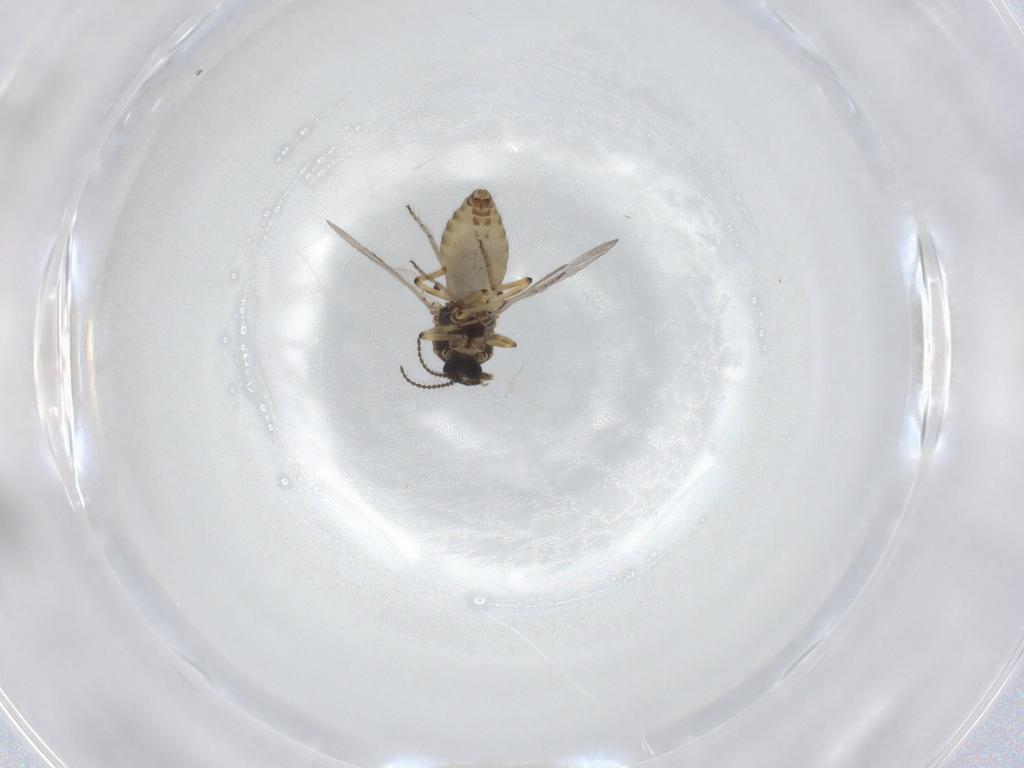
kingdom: Animalia
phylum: Arthropoda
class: Insecta
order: Diptera
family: Ceratopogonidae
